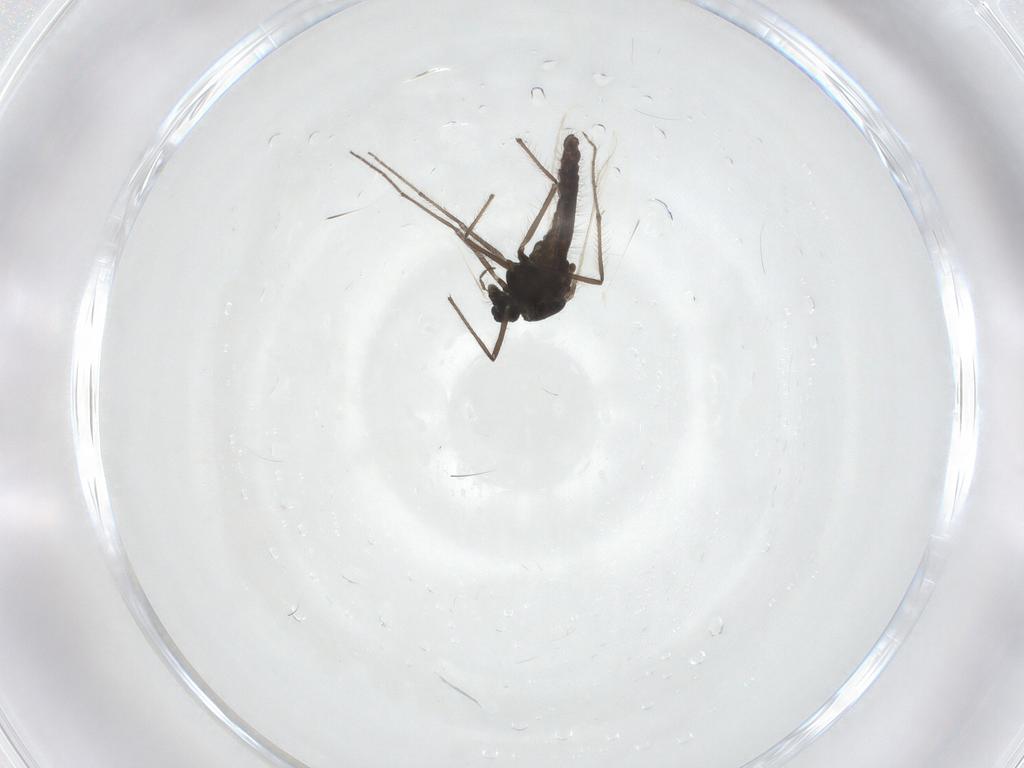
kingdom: Animalia
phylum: Arthropoda
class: Insecta
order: Diptera
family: Chironomidae
